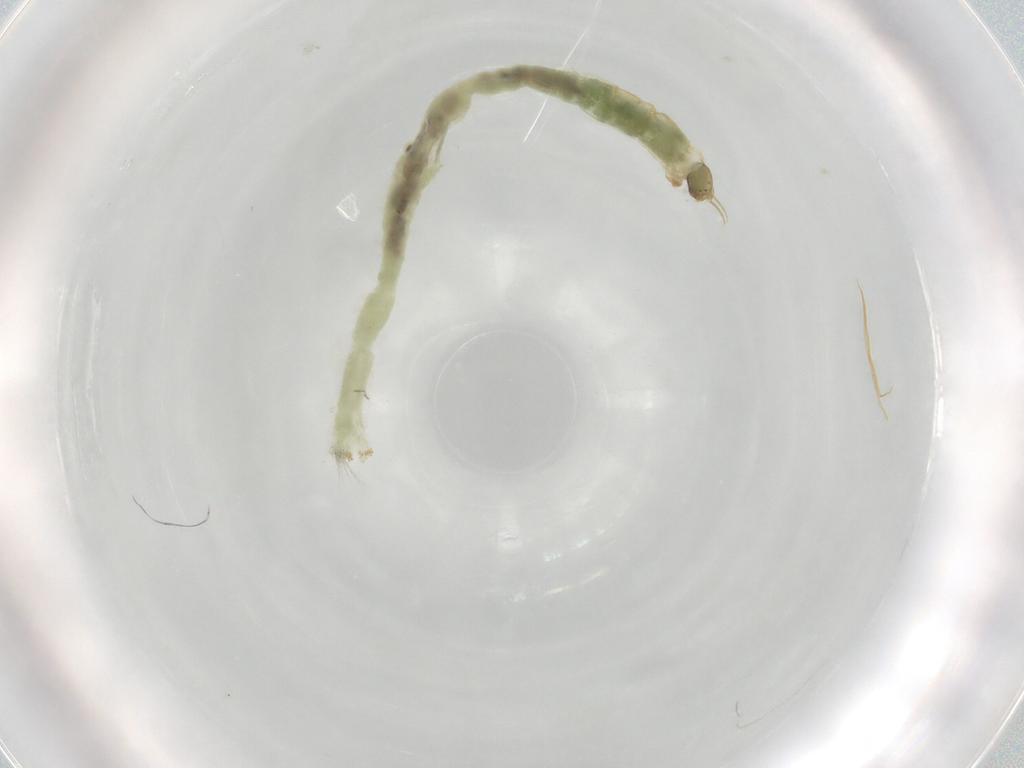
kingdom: Animalia
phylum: Arthropoda
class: Insecta
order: Diptera
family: Chironomidae
